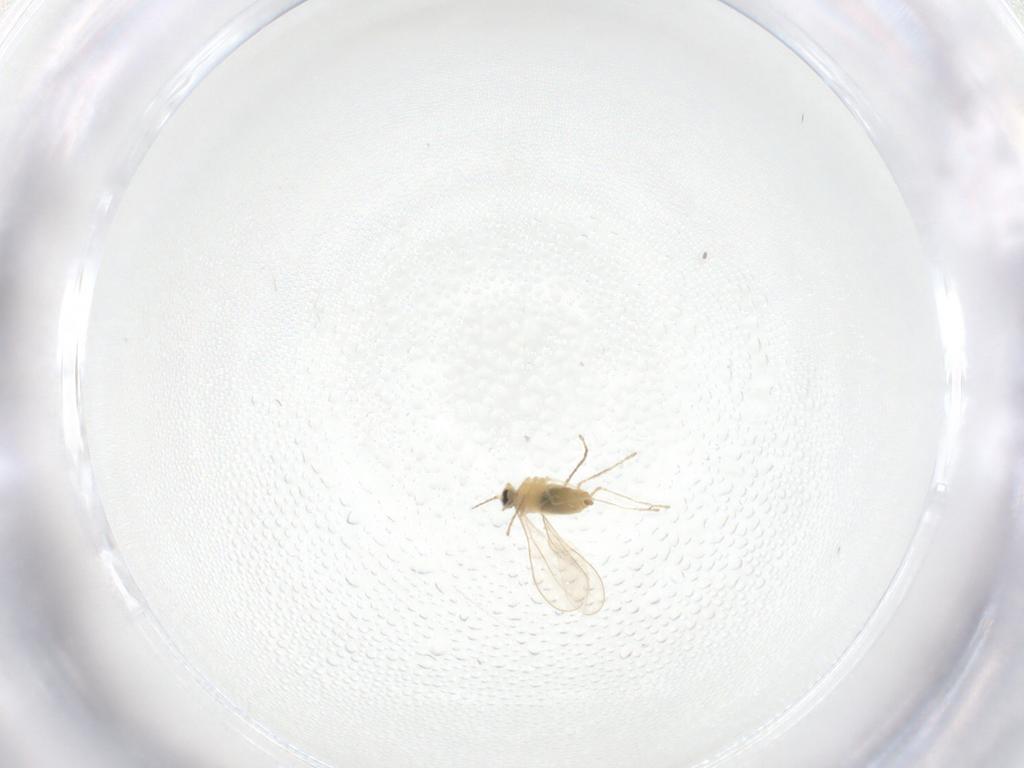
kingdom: Animalia
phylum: Arthropoda
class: Insecta
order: Diptera
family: Cecidomyiidae
